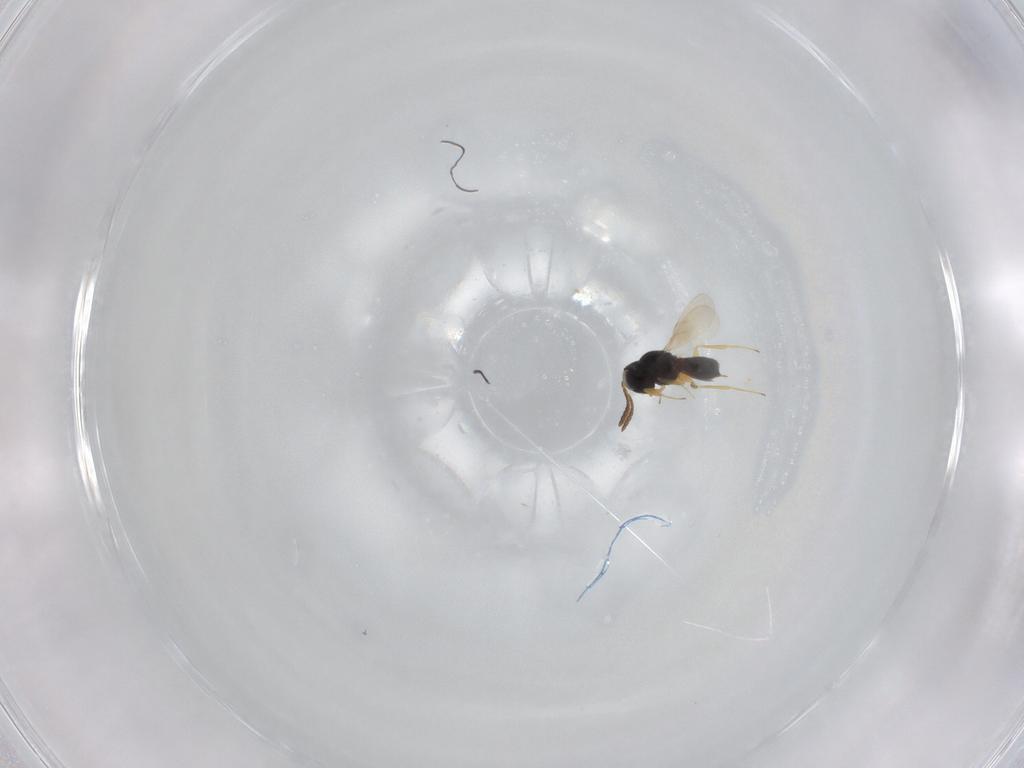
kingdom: Animalia
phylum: Arthropoda
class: Insecta
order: Hymenoptera
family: Scelionidae
